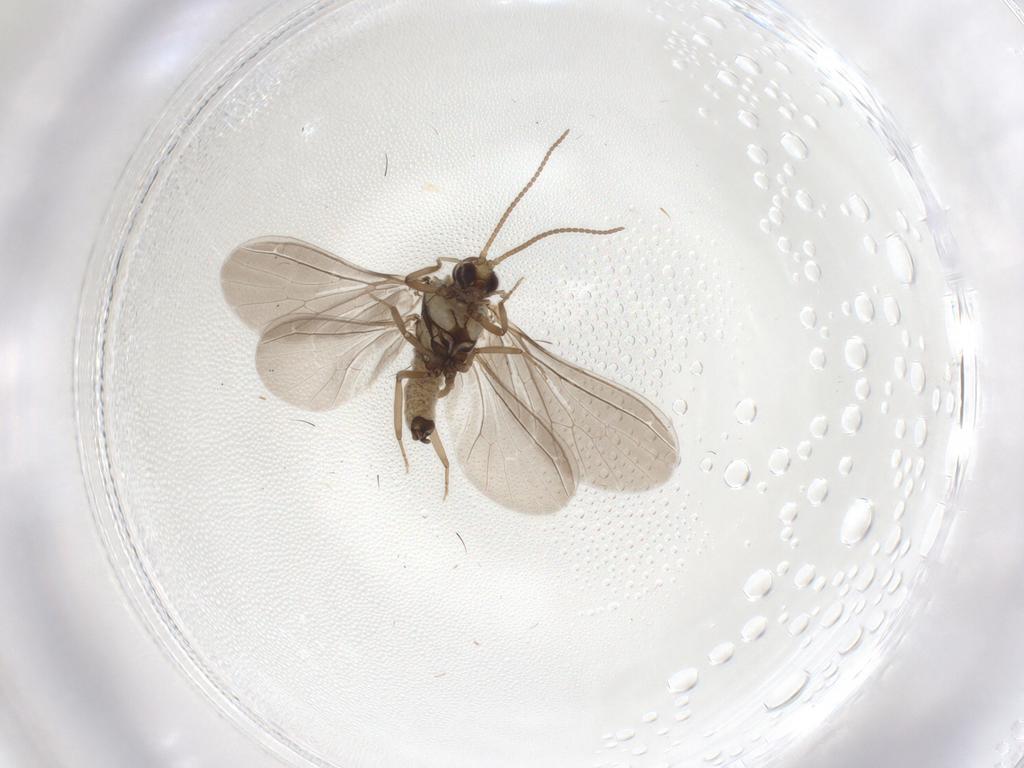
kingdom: Animalia
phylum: Arthropoda
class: Insecta
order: Neuroptera
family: Coniopterygidae
